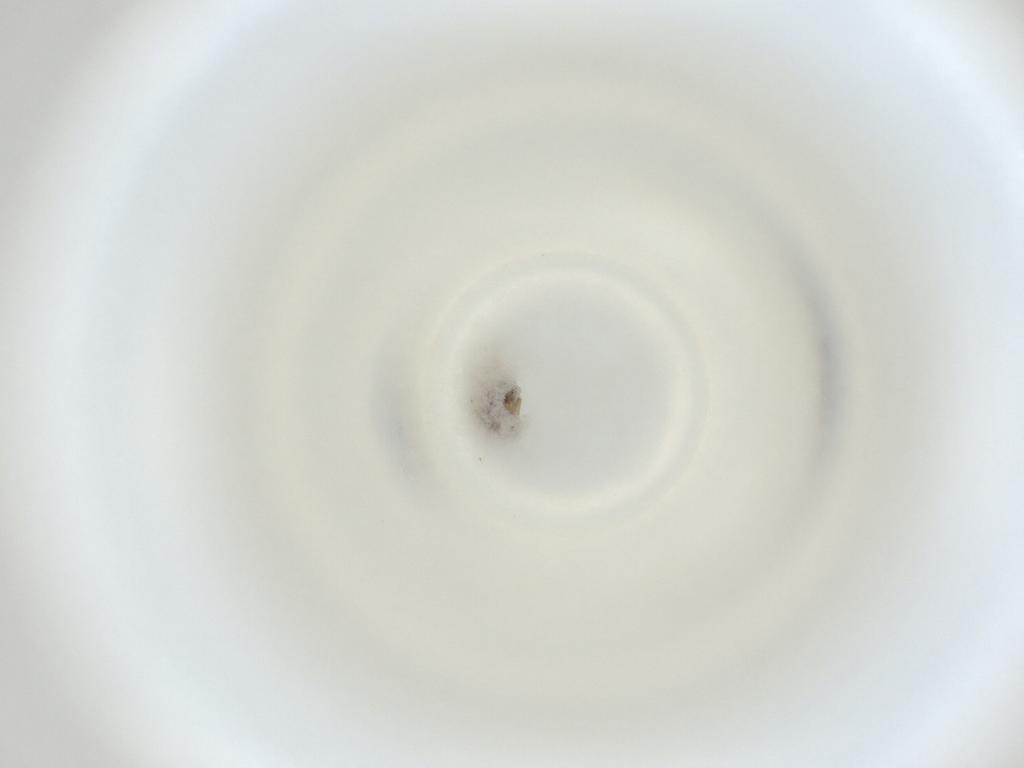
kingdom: Animalia
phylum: Arthropoda
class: Insecta
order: Diptera
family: Cecidomyiidae
